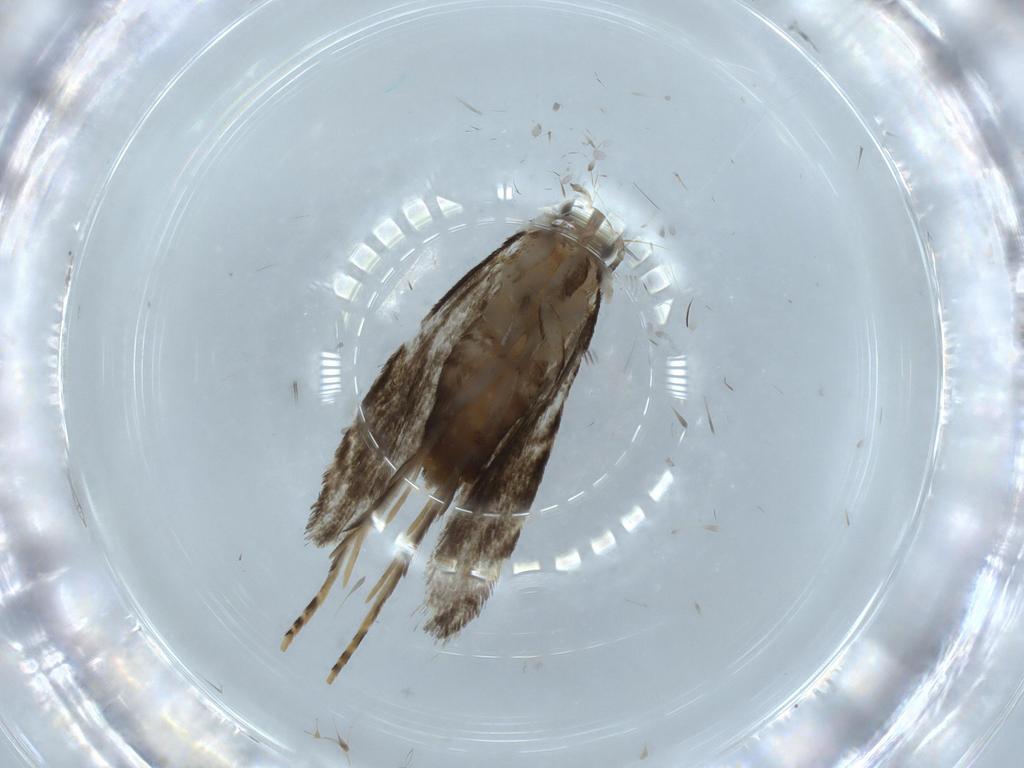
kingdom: Animalia
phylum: Arthropoda
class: Insecta
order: Lepidoptera
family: Tineidae
